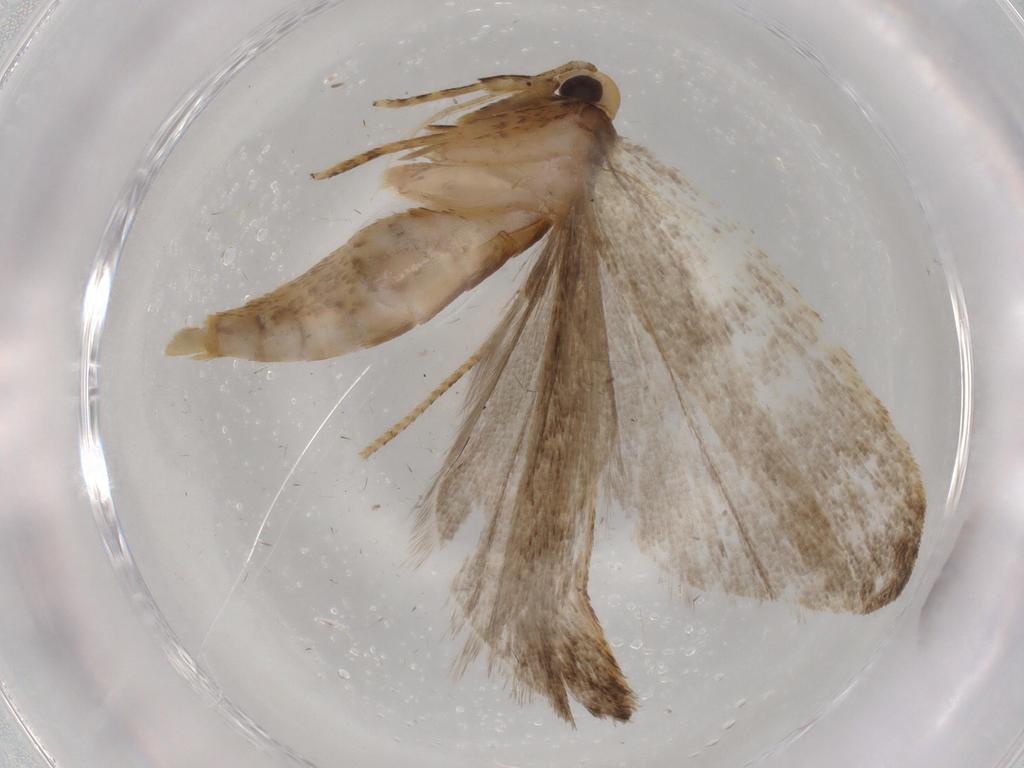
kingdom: Animalia
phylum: Arthropoda
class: Insecta
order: Lepidoptera
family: Autostichidae
